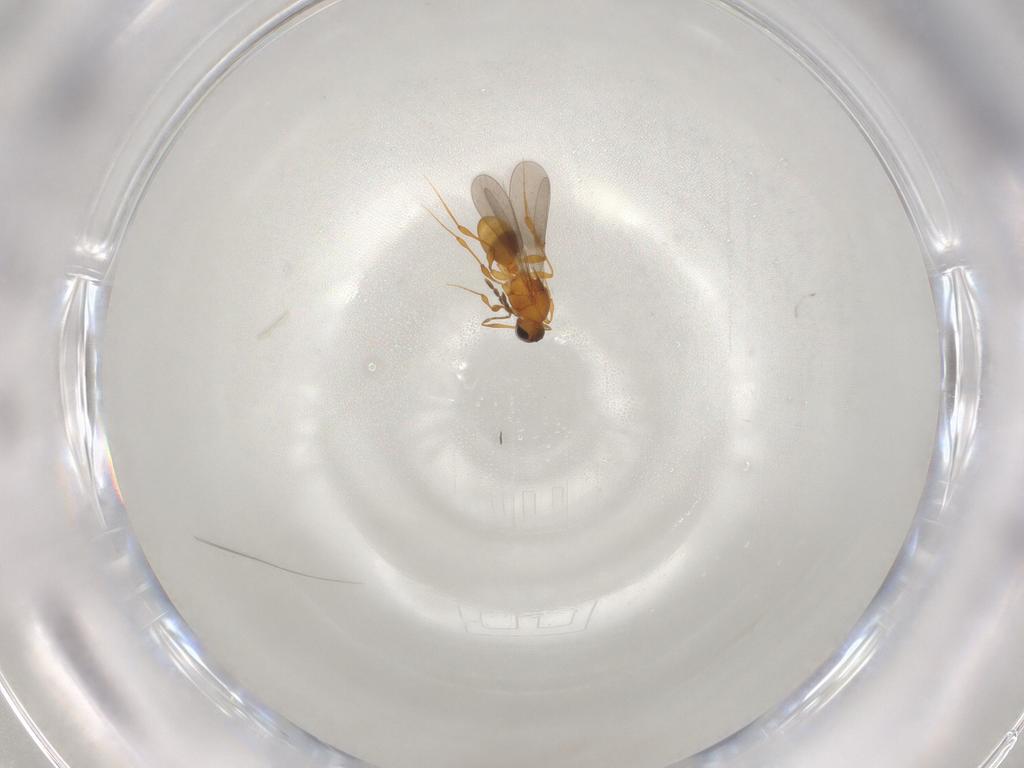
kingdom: Animalia
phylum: Arthropoda
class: Insecta
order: Hymenoptera
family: Platygastridae
